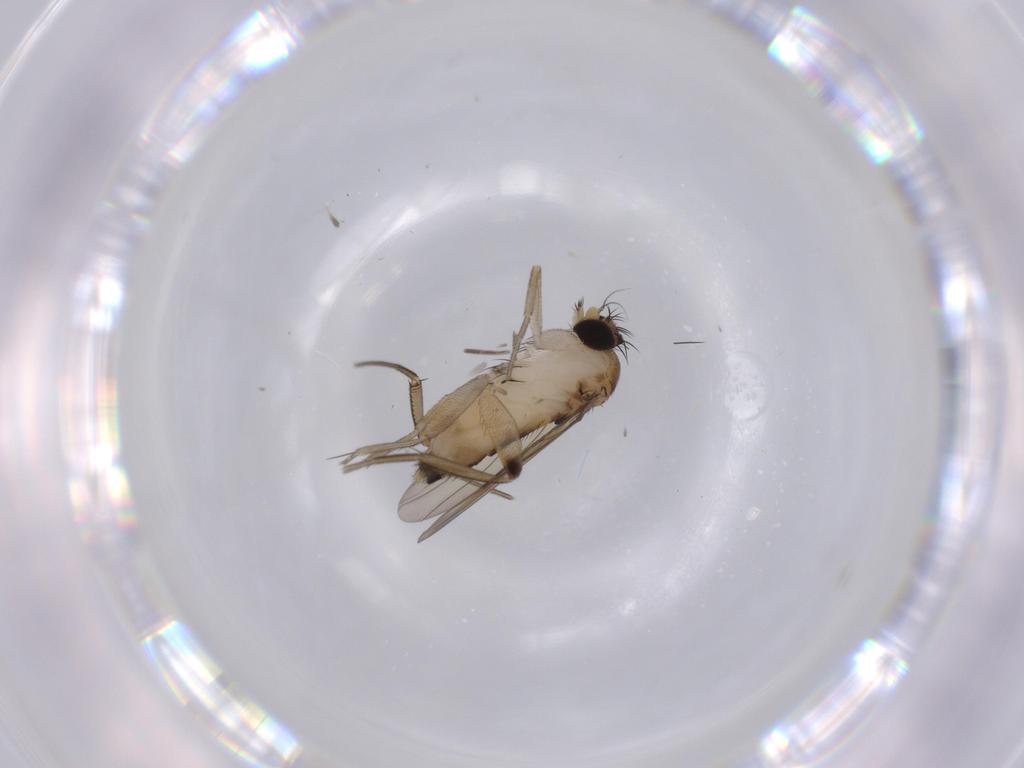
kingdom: Animalia
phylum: Arthropoda
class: Insecta
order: Diptera
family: Phoridae
